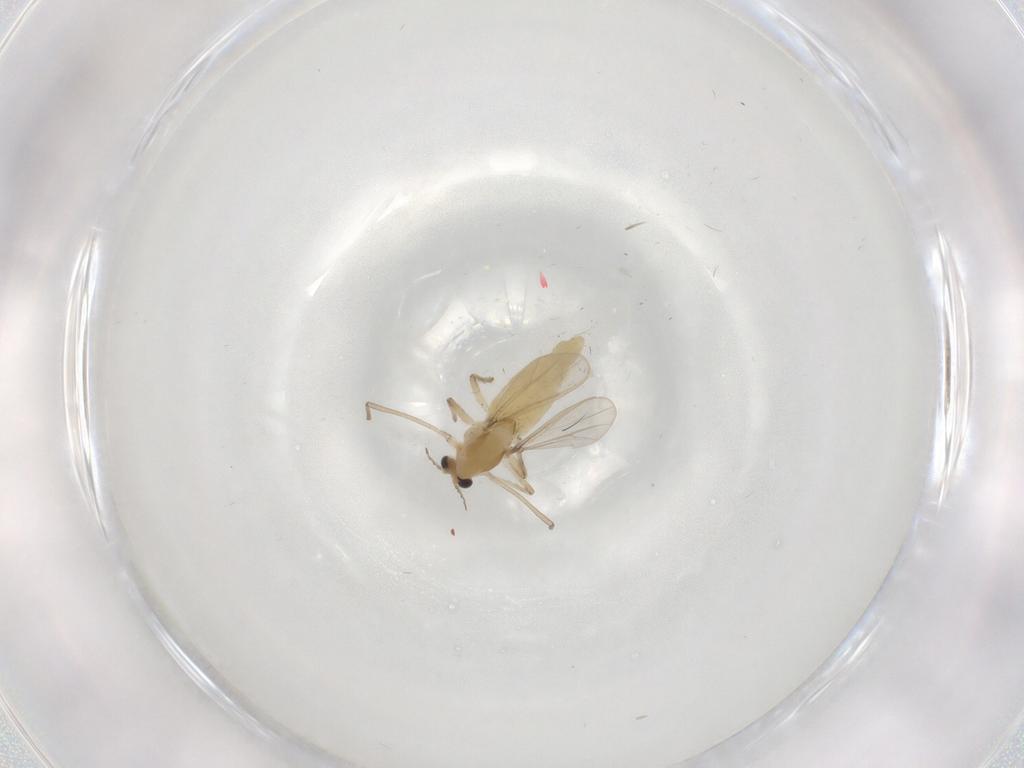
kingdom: Animalia
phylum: Arthropoda
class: Insecta
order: Diptera
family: Chironomidae
